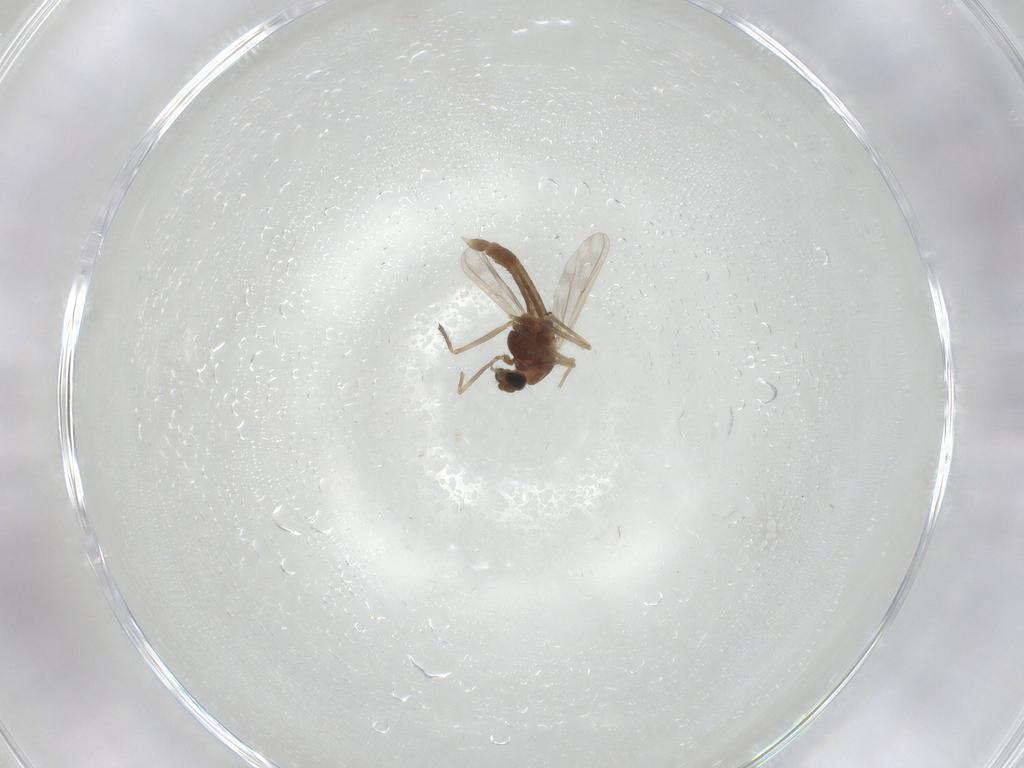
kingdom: Animalia
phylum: Arthropoda
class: Insecta
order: Diptera
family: Chironomidae
